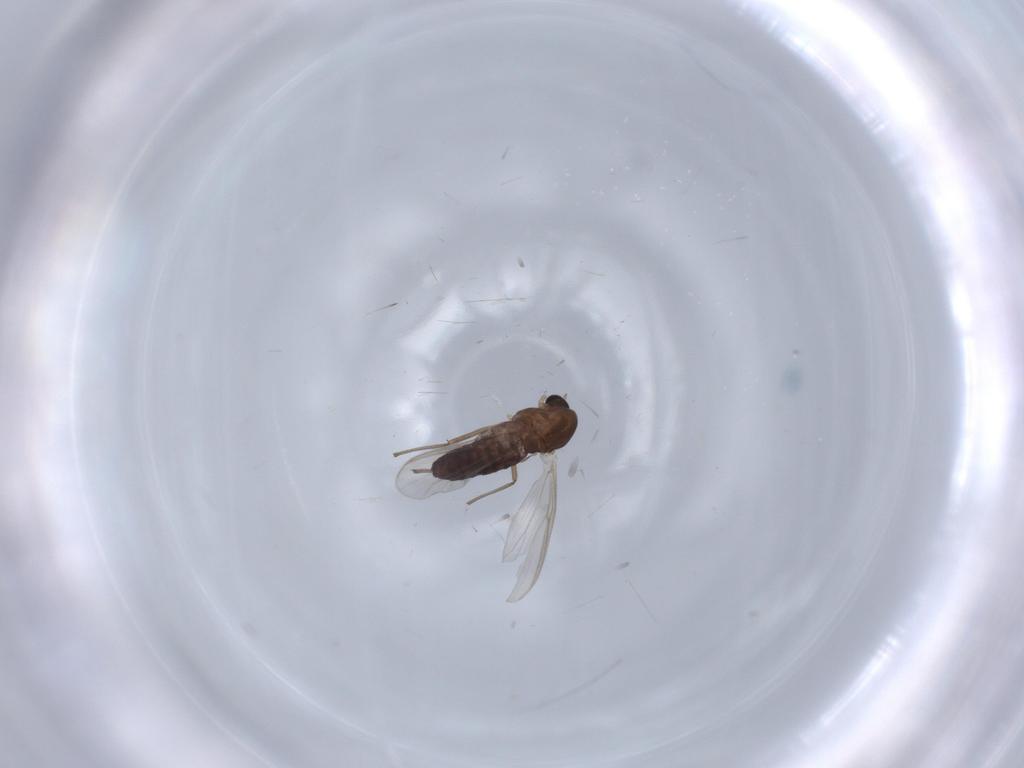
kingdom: Animalia
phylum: Arthropoda
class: Insecta
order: Diptera
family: Chironomidae
